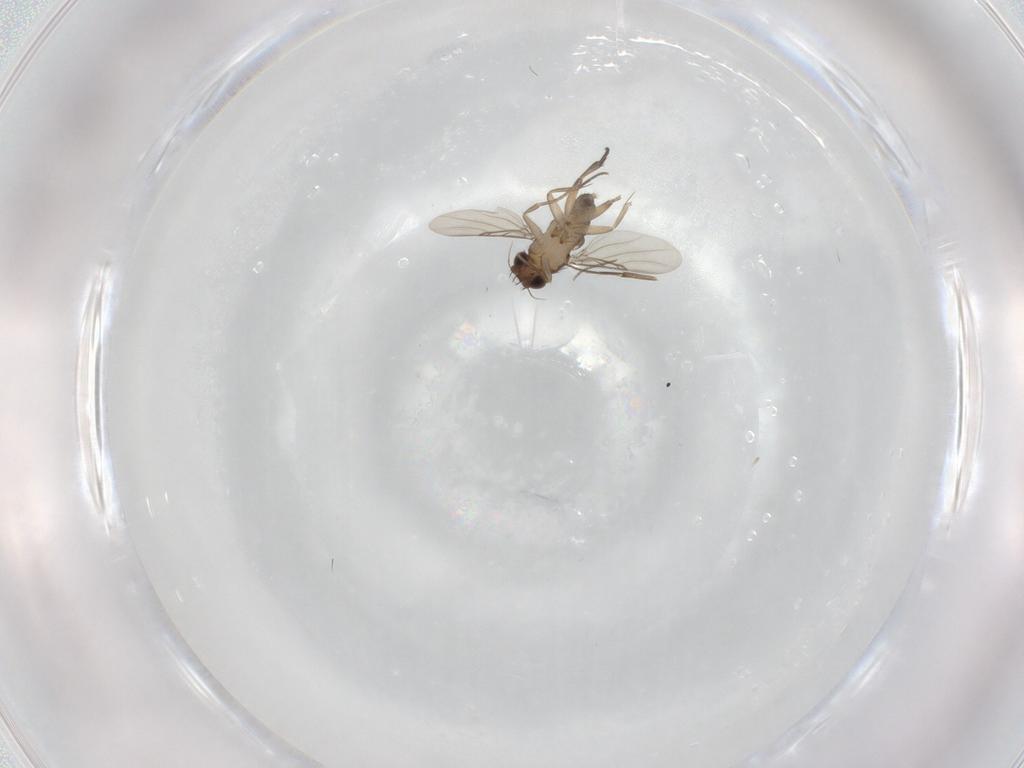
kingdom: Animalia
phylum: Arthropoda
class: Insecta
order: Diptera
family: Phoridae
